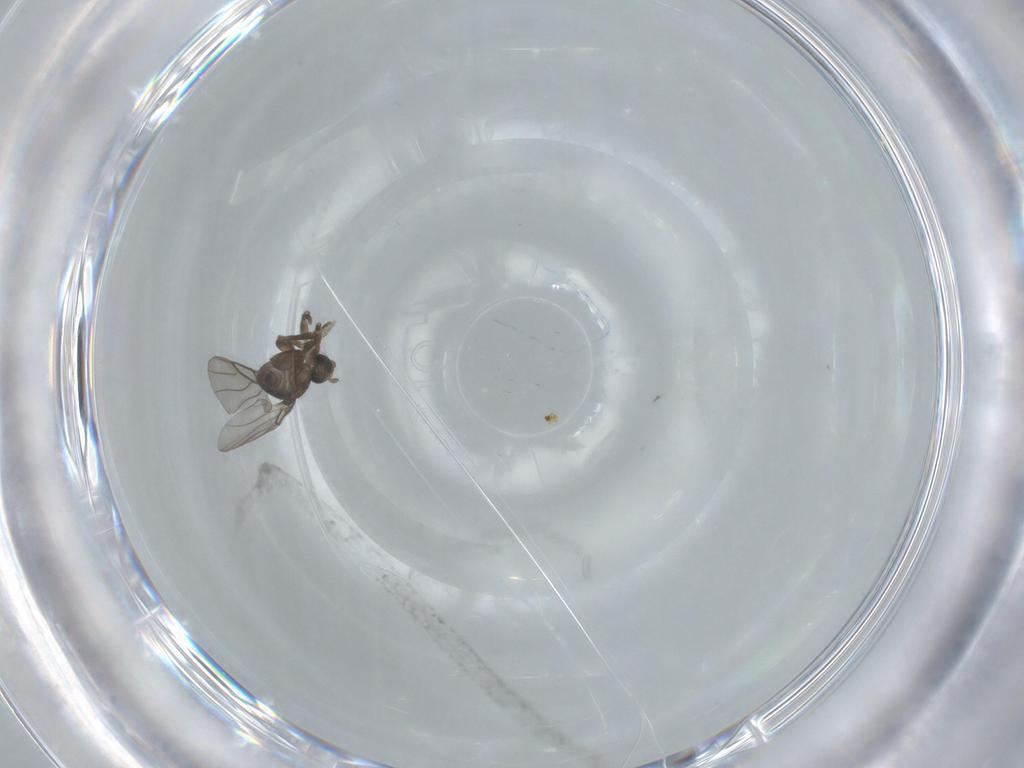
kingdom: Animalia
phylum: Arthropoda
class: Insecta
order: Diptera
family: Phoridae
